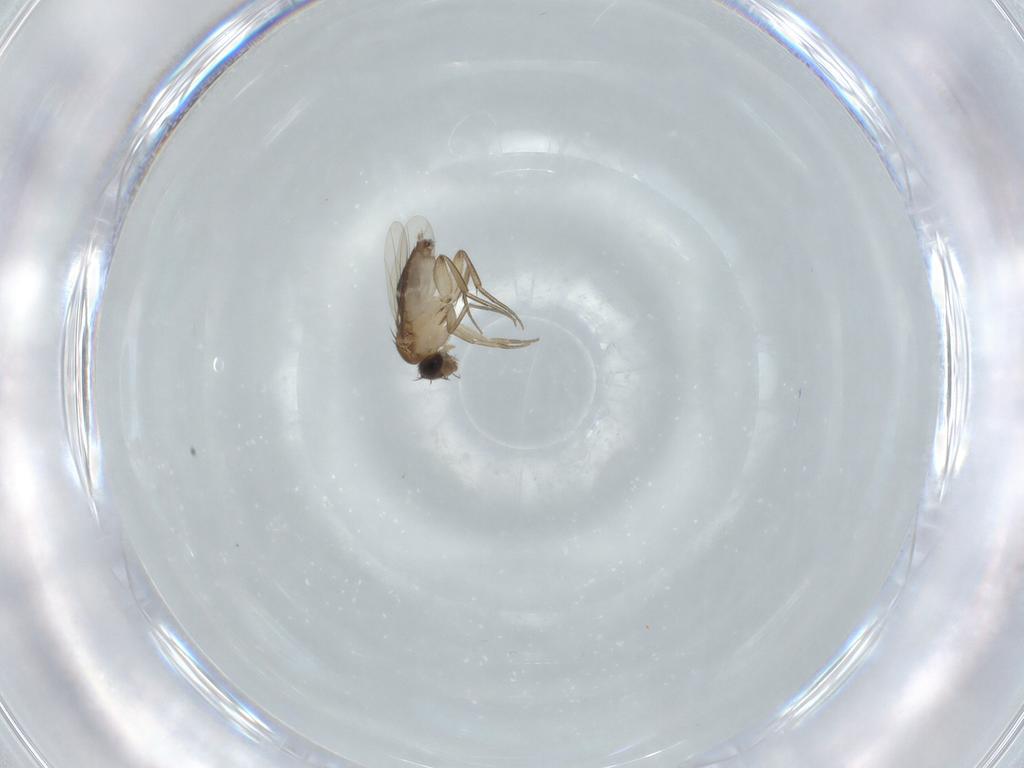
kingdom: Animalia
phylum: Arthropoda
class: Insecta
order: Diptera
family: Phoridae
